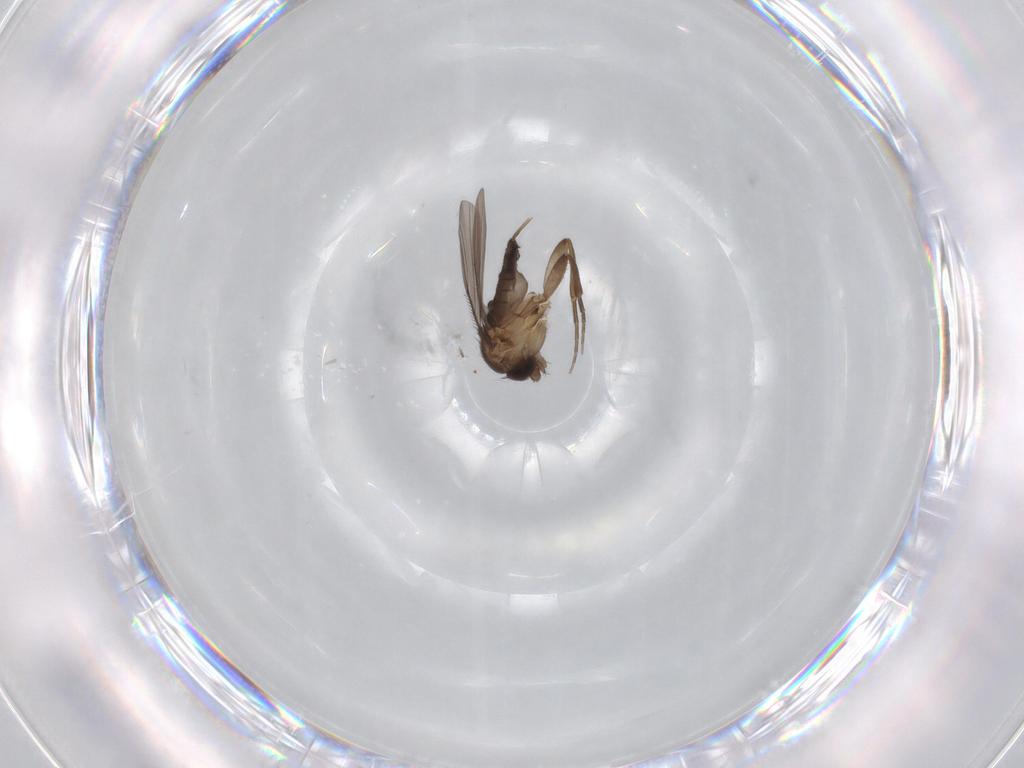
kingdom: Animalia
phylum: Arthropoda
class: Insecta
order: Diptera
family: Phoridae
